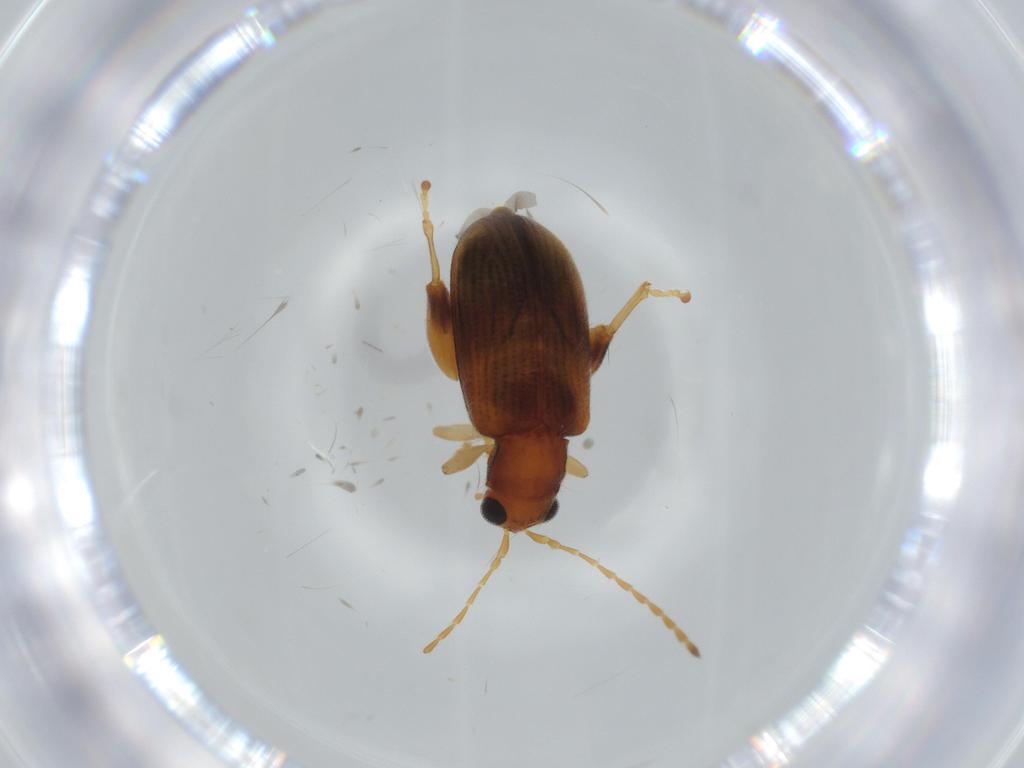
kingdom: Animalia
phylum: Arthropoda
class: Insecta
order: Coleoptera
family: Chrysomelidae
